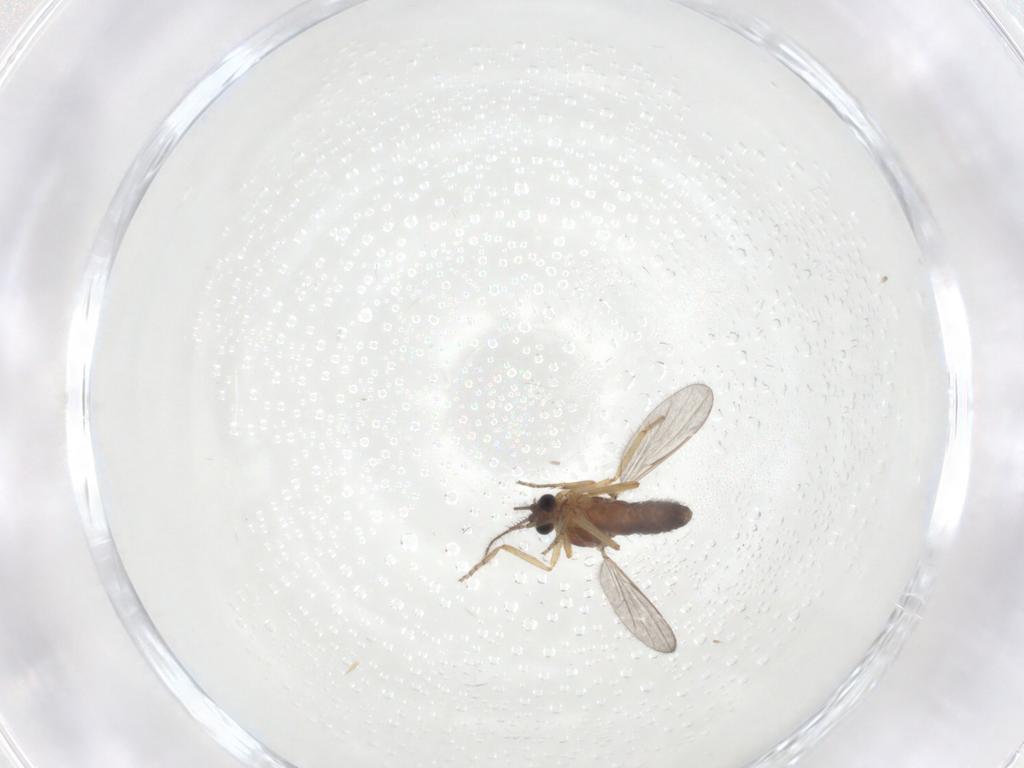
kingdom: Animalia
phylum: Arthropoda
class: Insecta
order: Diptera
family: Ceratopogonidae
